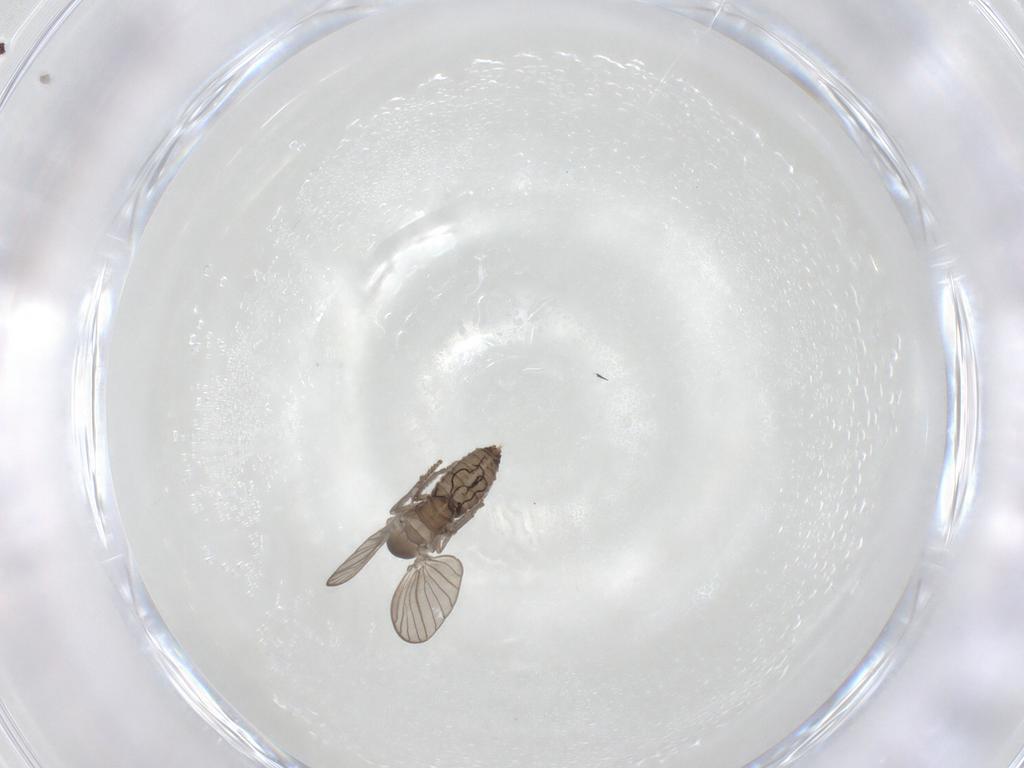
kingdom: Animalia
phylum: Arthropoda
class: Insecta
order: Diptera
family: Psychodidae
